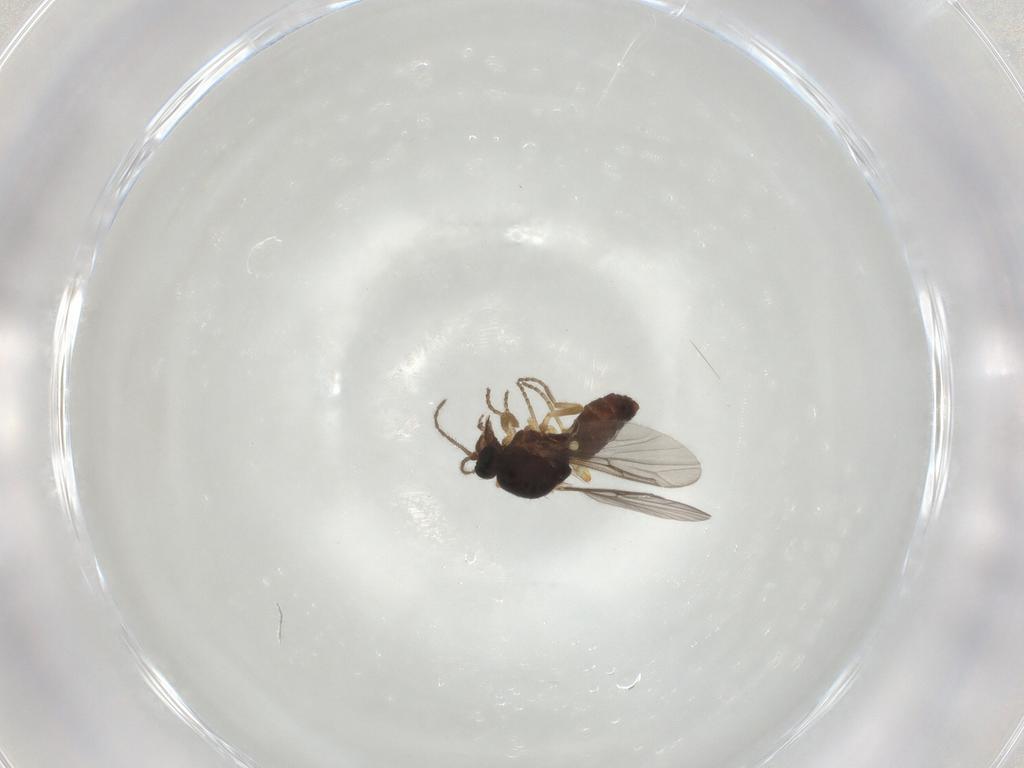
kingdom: Animalia
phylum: Arthropoda
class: Insecta
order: Diptera
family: Ceratopogonidae
